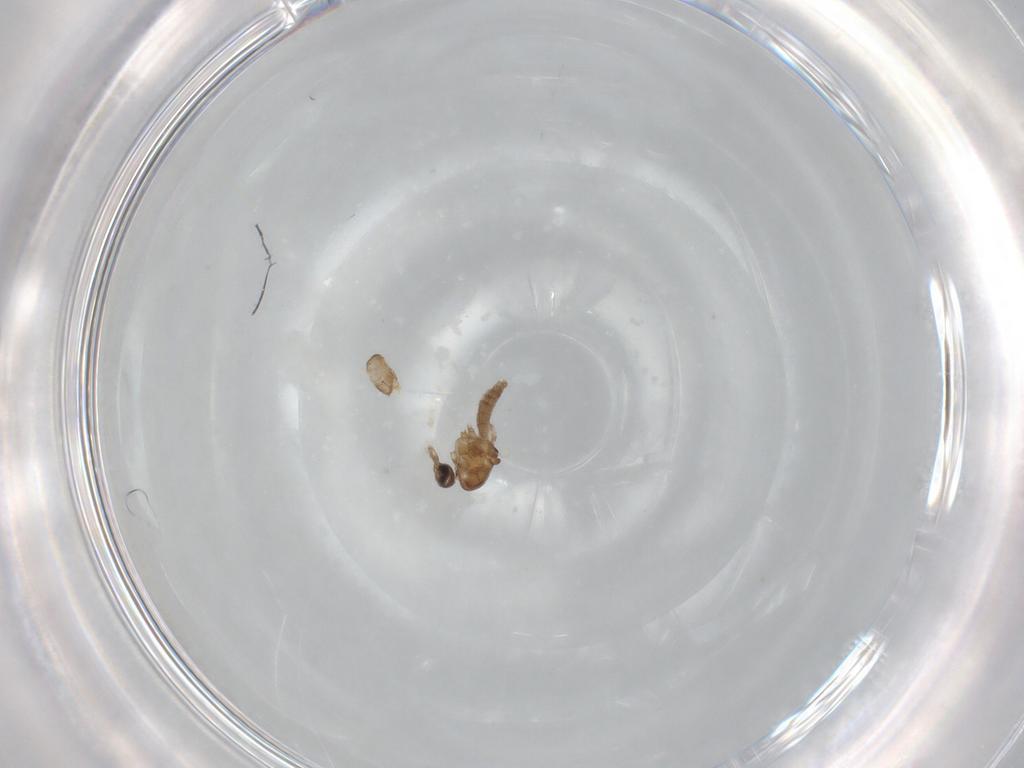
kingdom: Animalia
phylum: Arthropoda
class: Insecta
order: Diptera
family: Ceratopogonidae
